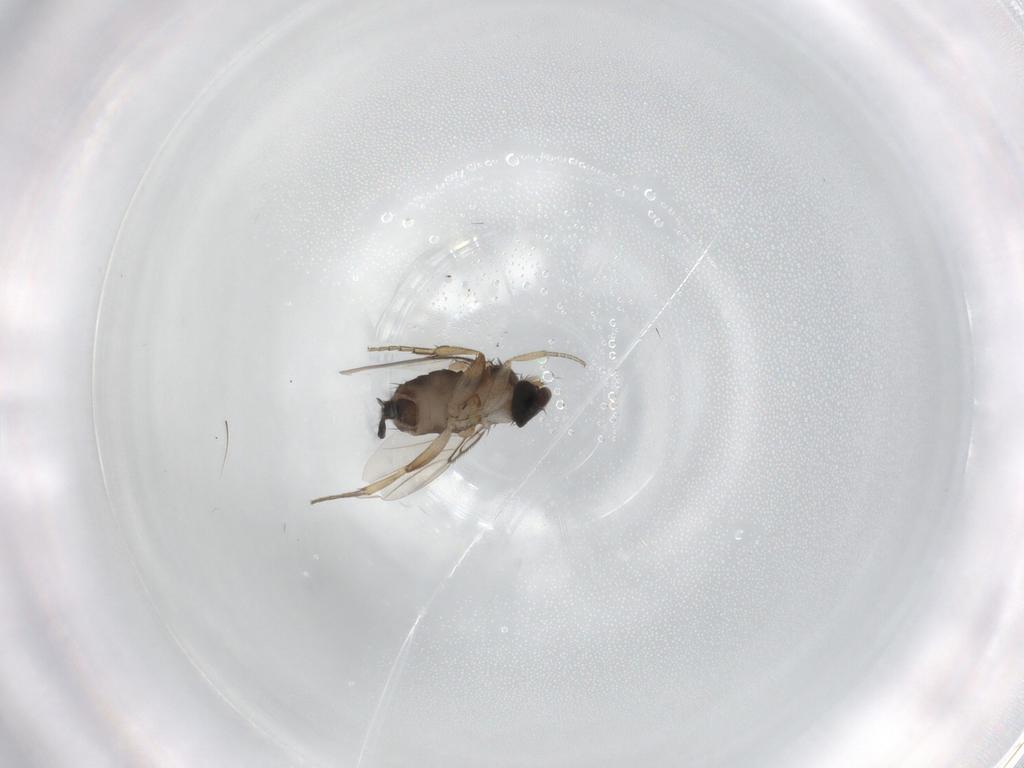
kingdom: Animalia
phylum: Arthropoda
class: Insecta
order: Diptera
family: Phoridae
